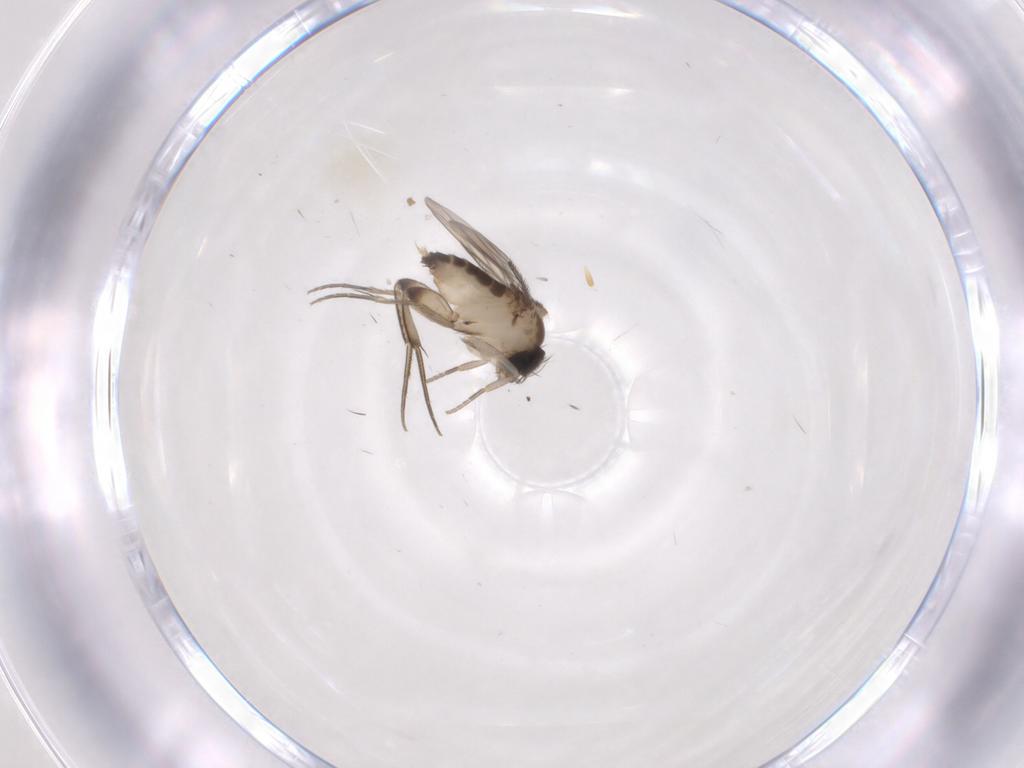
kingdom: Animalia
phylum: Arthropoda
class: Insecta
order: Diptera
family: Phoridae
